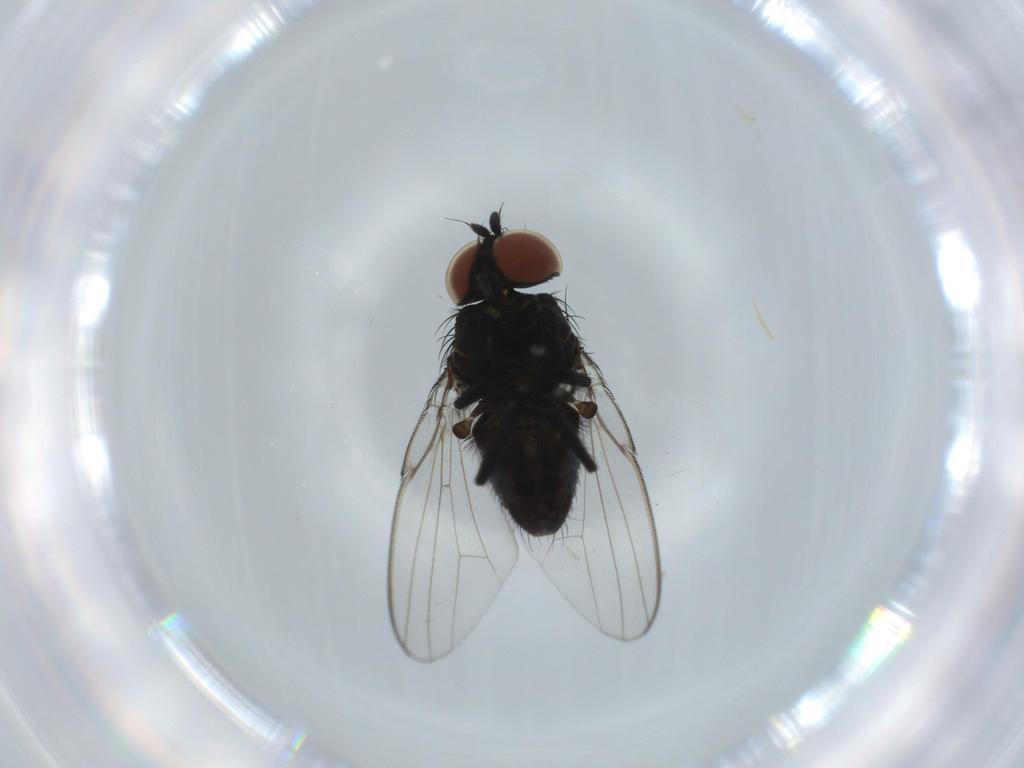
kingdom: Animalia
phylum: Arthropoda
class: Insecta
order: Diptera
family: Milichiidae
